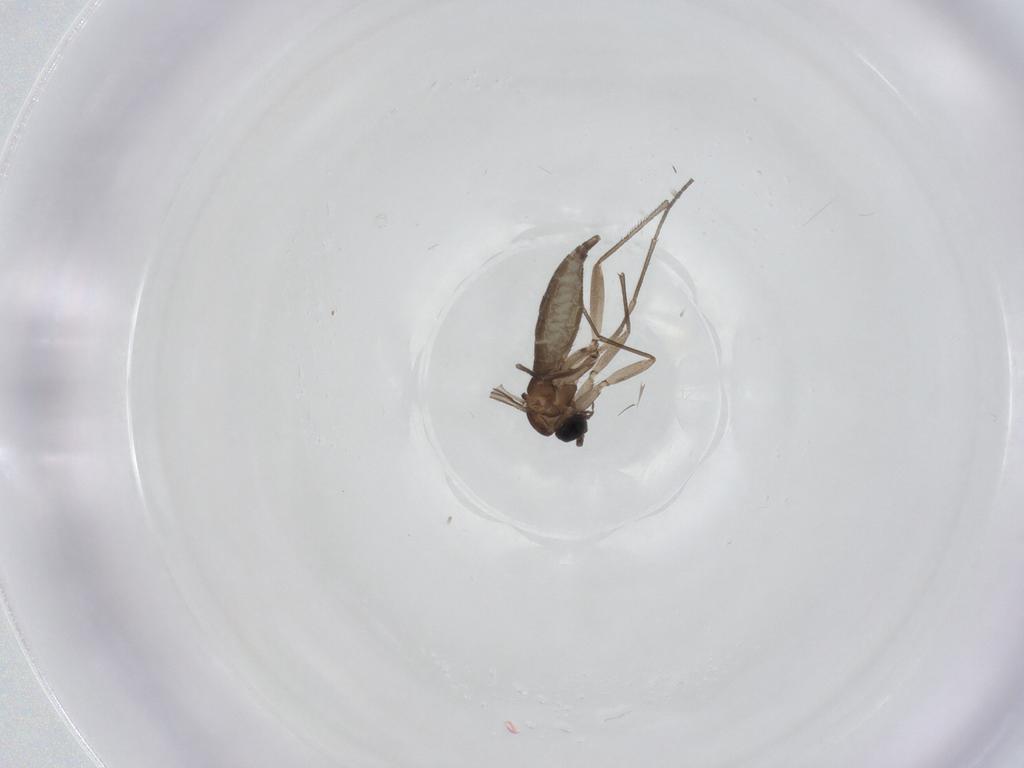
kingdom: Animalia
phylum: Arthropoda
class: Insecta
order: Diptera
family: Sciaridae
